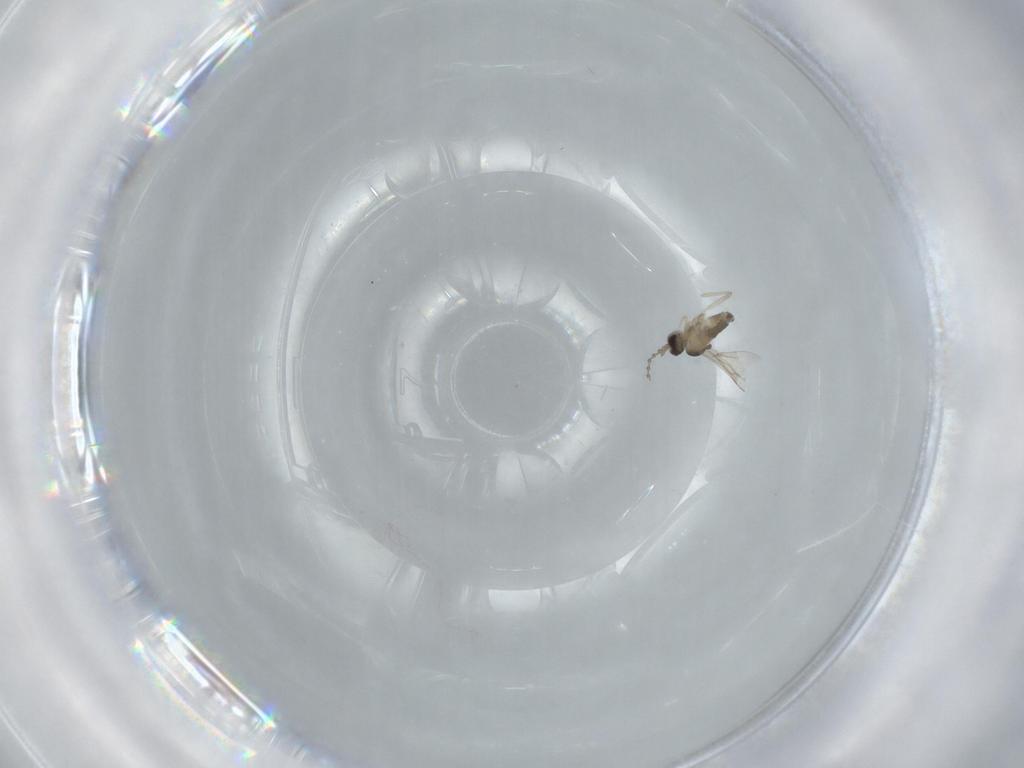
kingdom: Animalia
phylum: Arthropoda
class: Insecta
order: Diptera
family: Cecidomyiidae
